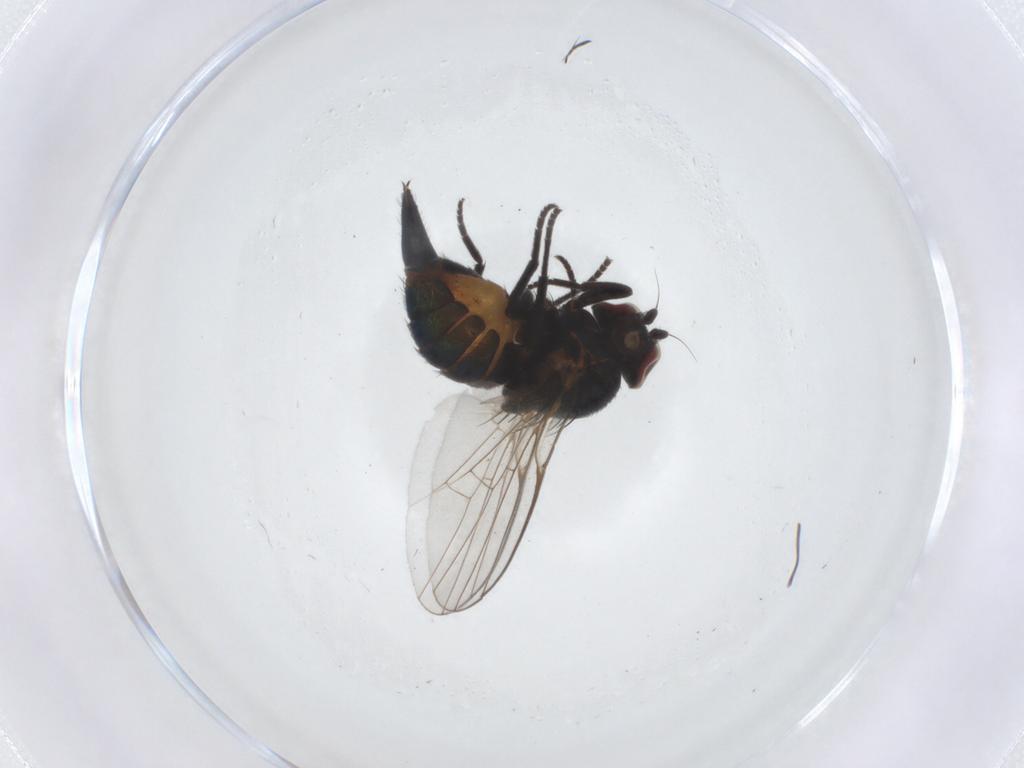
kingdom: Animalia
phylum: Arthropoda
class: Insecta
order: Diptera
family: Agromyzidae
